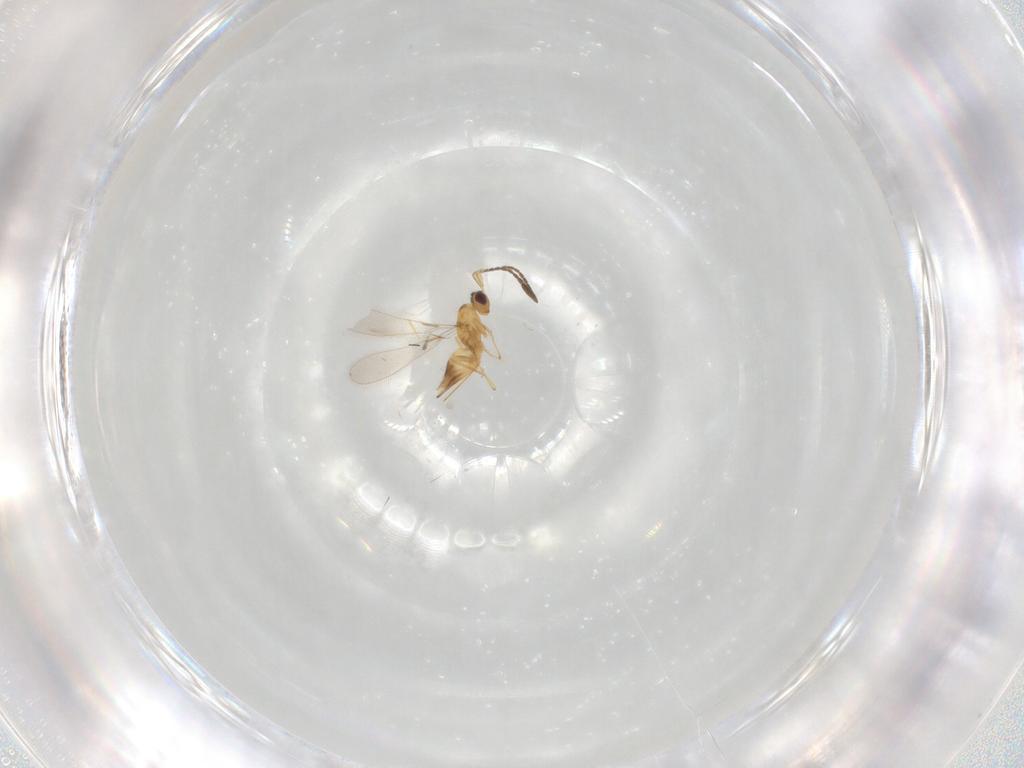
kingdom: Animalia
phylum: Arthropoda
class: Insecta
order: Hymenoptera
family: Mymaridae
